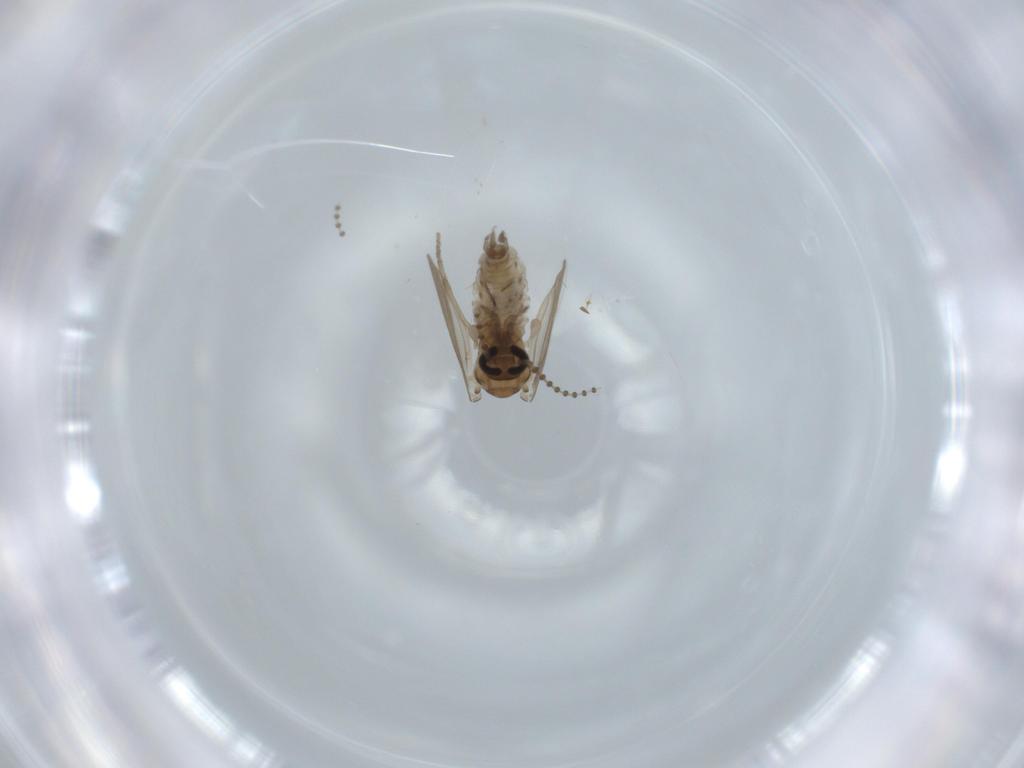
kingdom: Animalia
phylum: Arthropoda
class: Insecta
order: Diptera
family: Psychodidae
